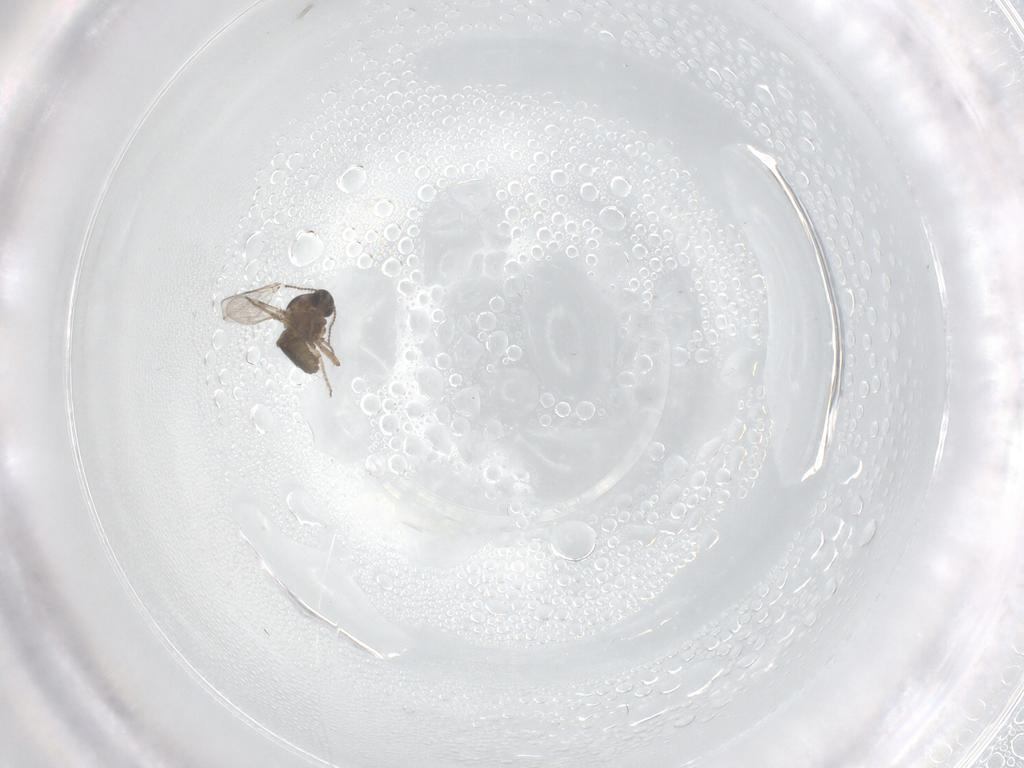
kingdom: Animalia
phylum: Arthropoda
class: Insecta
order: Diptera
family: Ceratopogonidae
